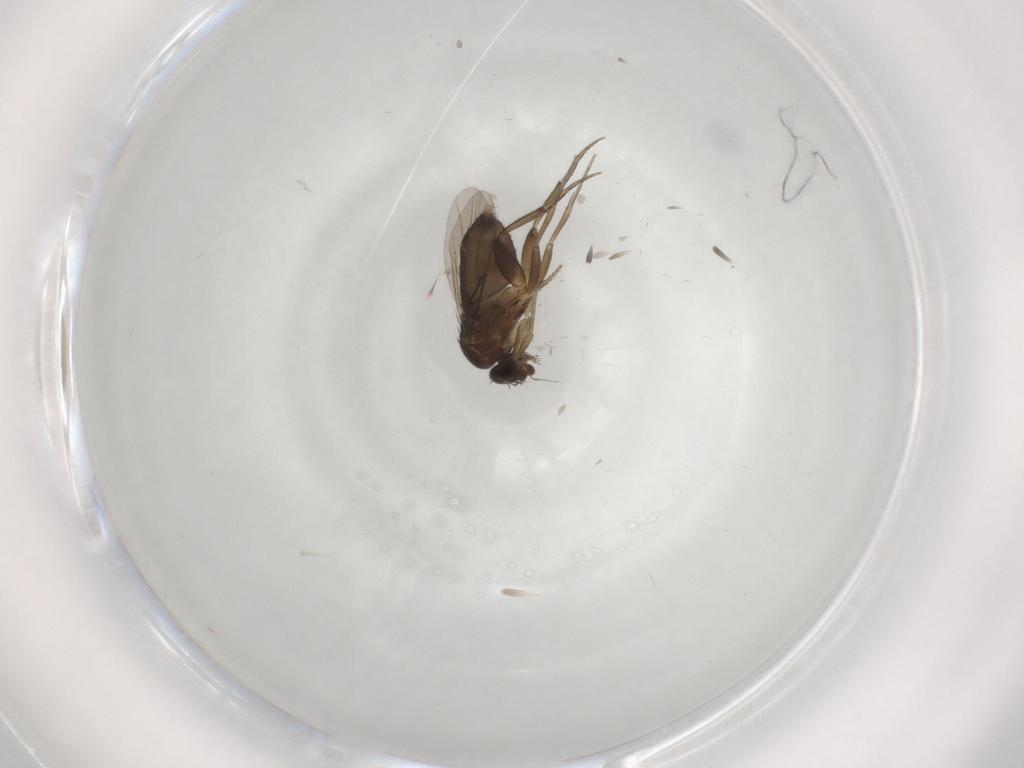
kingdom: Animalia
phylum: Arthropoda
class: Insecta
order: Diptera
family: Phoridae
